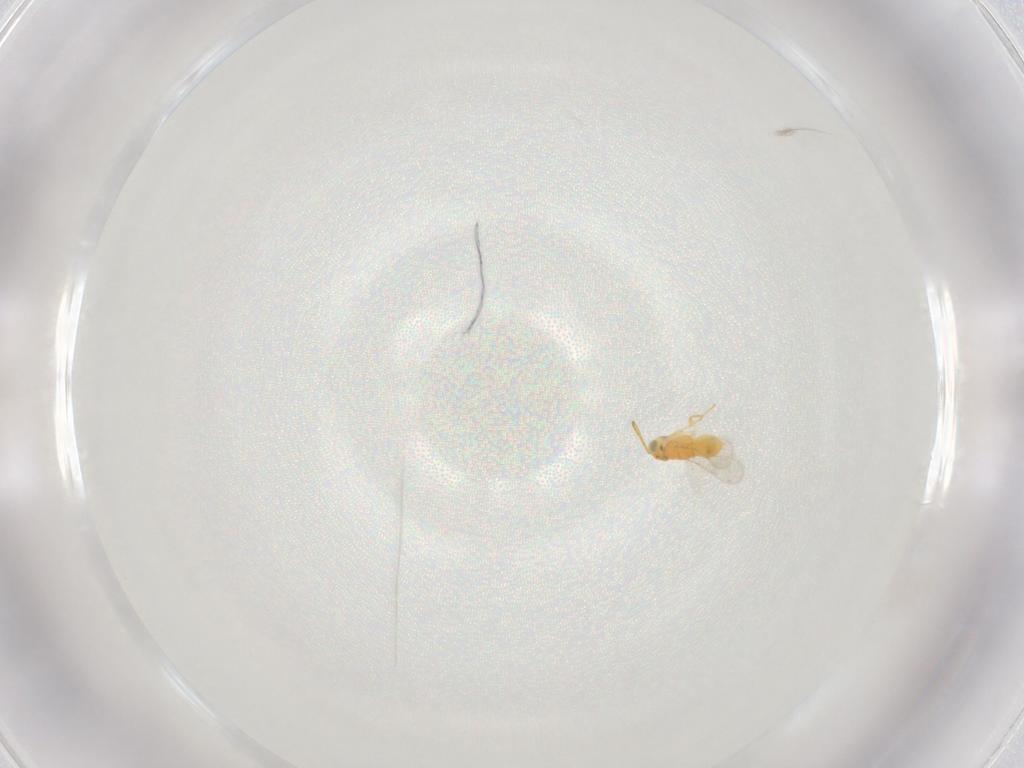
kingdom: Animalia
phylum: Arthropoda
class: Insecta
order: Hymenoptera
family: Aphelinidae
